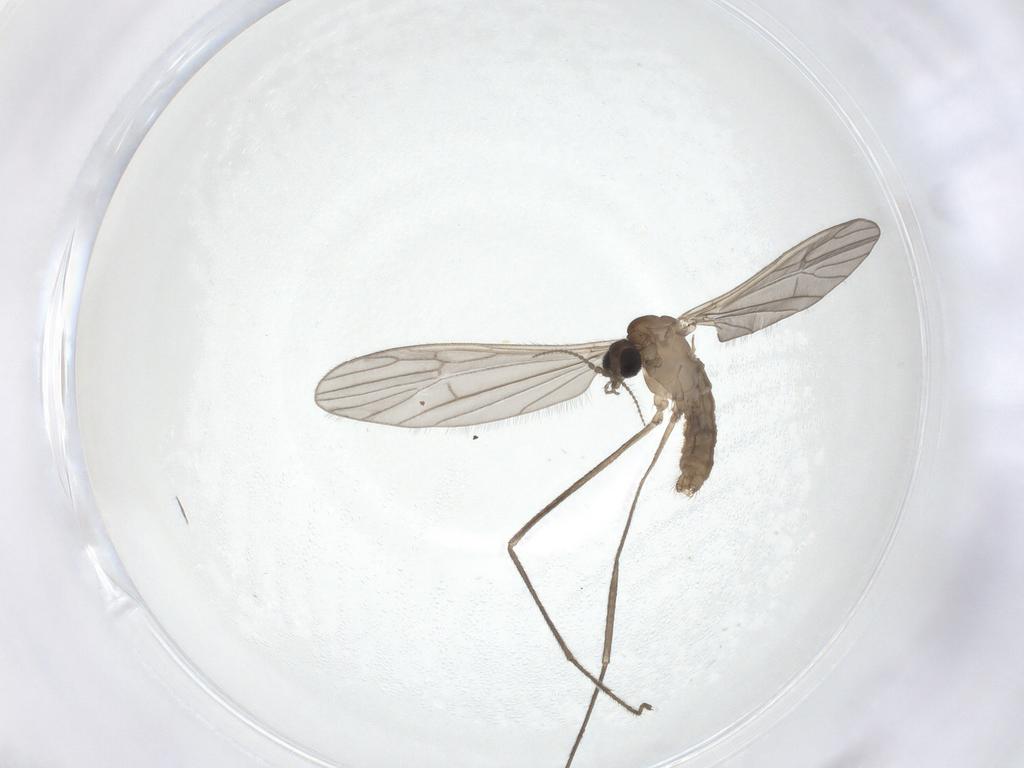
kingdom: Animalia
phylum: Arthropoda
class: Insecta
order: Diptera
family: Limoniidae
